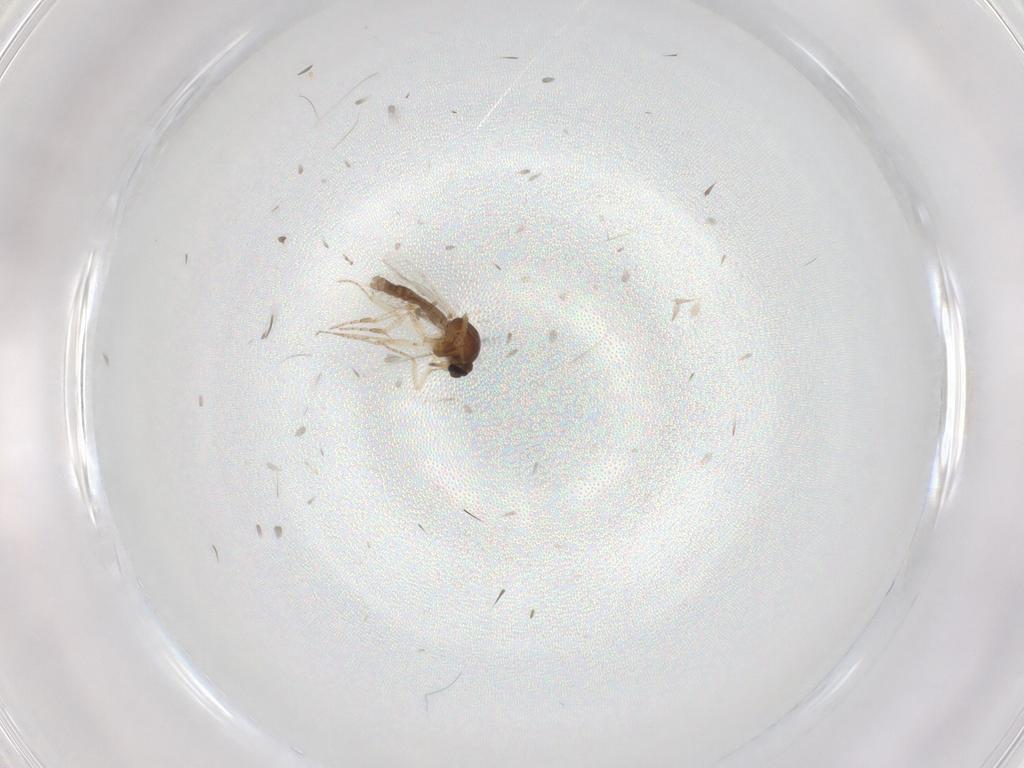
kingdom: Animalia
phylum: Arthropoda
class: Insecta
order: Diptera
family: Ceratopogonidae
